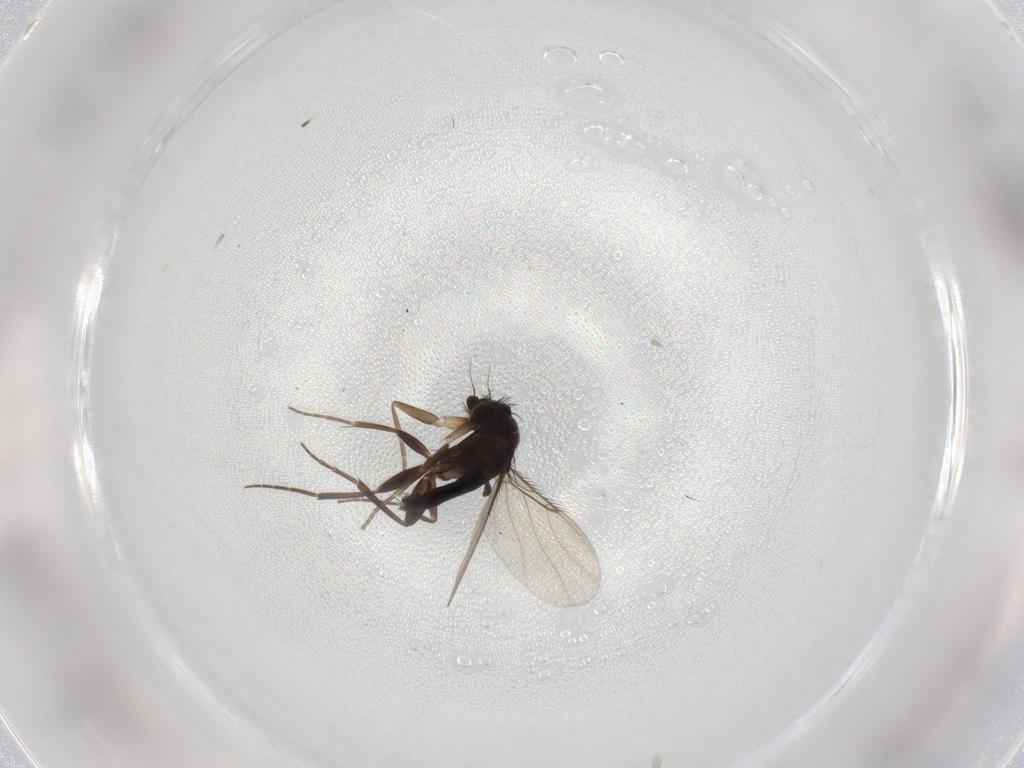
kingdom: Animalia
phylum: Arthropoda
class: Insecta
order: Diptera
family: Phoridae
